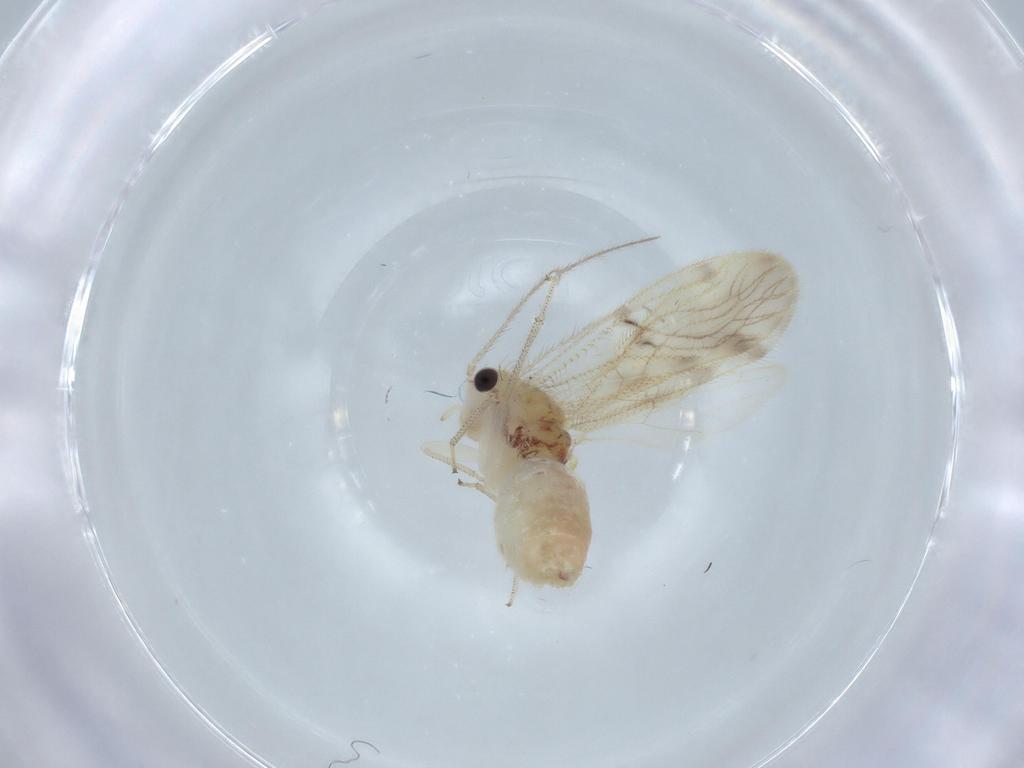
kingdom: Animalia
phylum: Arthropoda
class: Insecta
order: Psocodea
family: Pseudocaeciliidae
